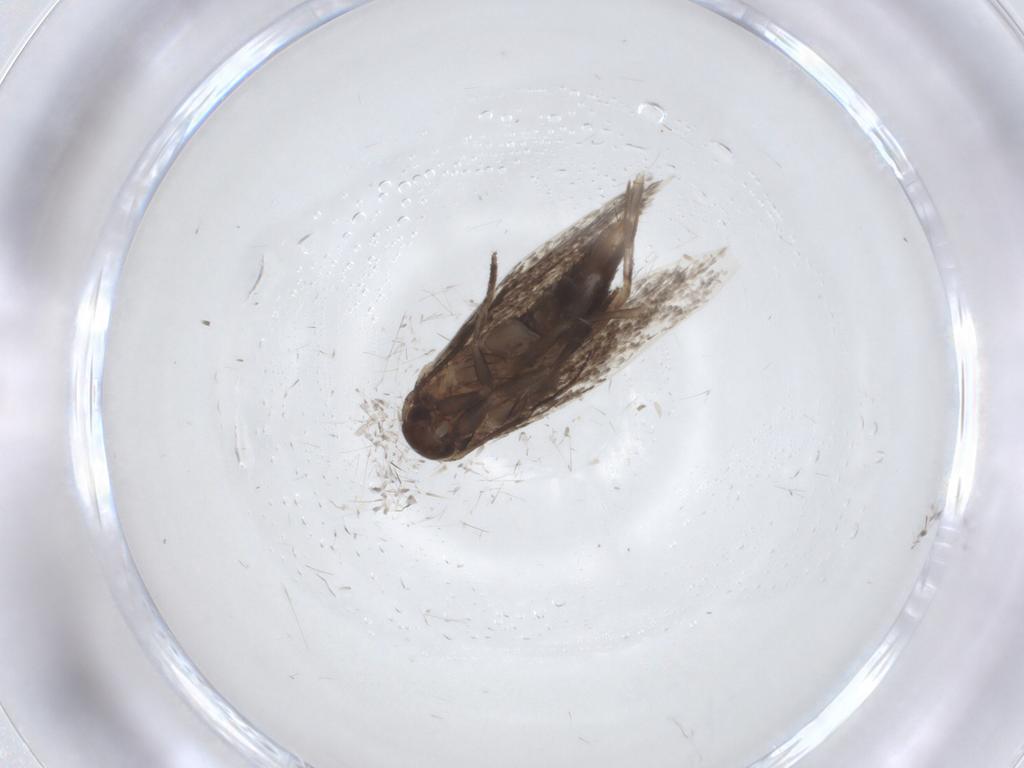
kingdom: Animalia
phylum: Arthropoda
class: Insecta
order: Lepidoptera
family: Elachistidae
